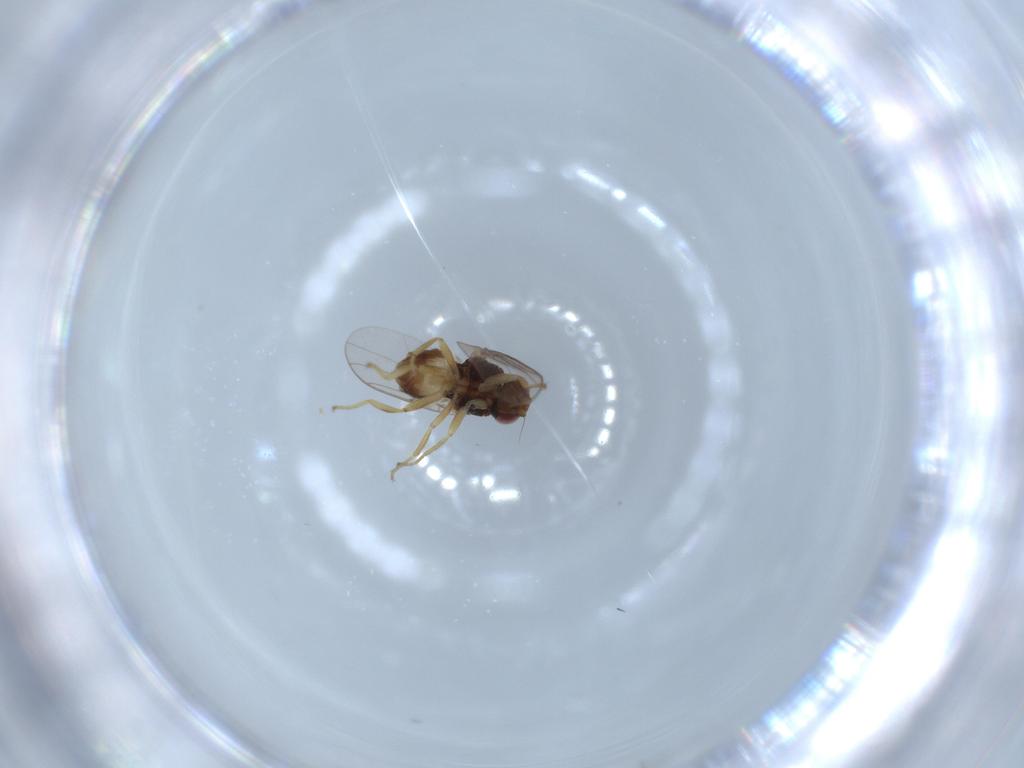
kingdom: Animalia
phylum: Arthropoda
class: Insecta
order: Diptera
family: Chloropidae
